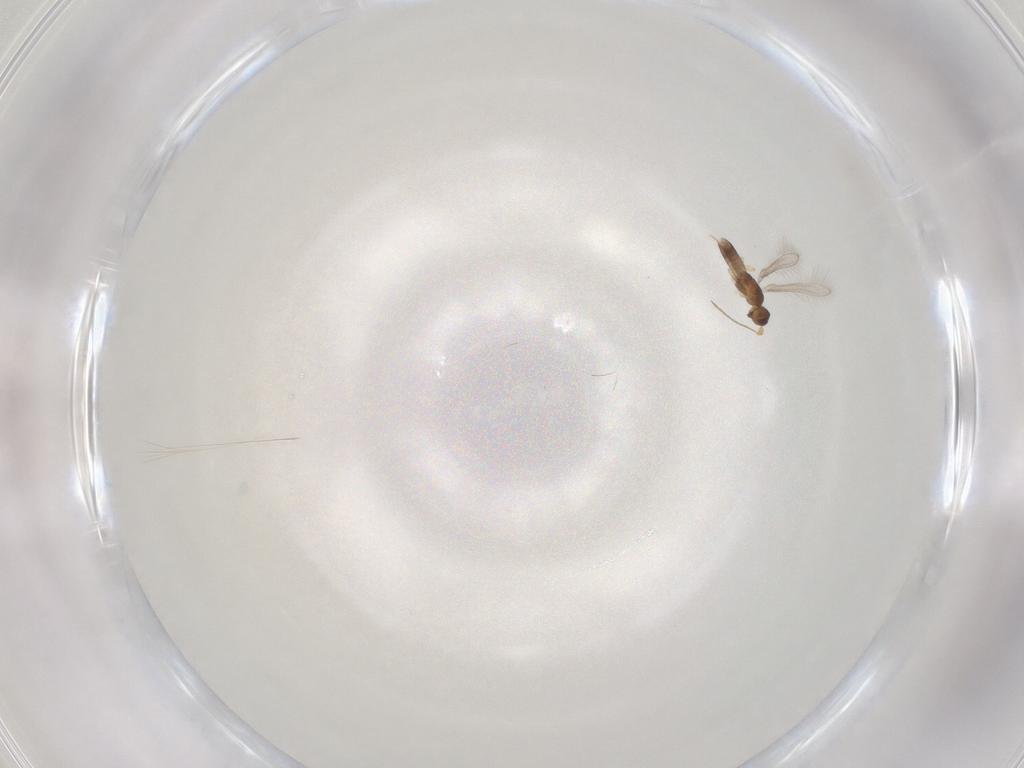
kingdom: Animalia
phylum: Arthropoda
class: Insecta
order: Hymenoptera
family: Mymaridae
